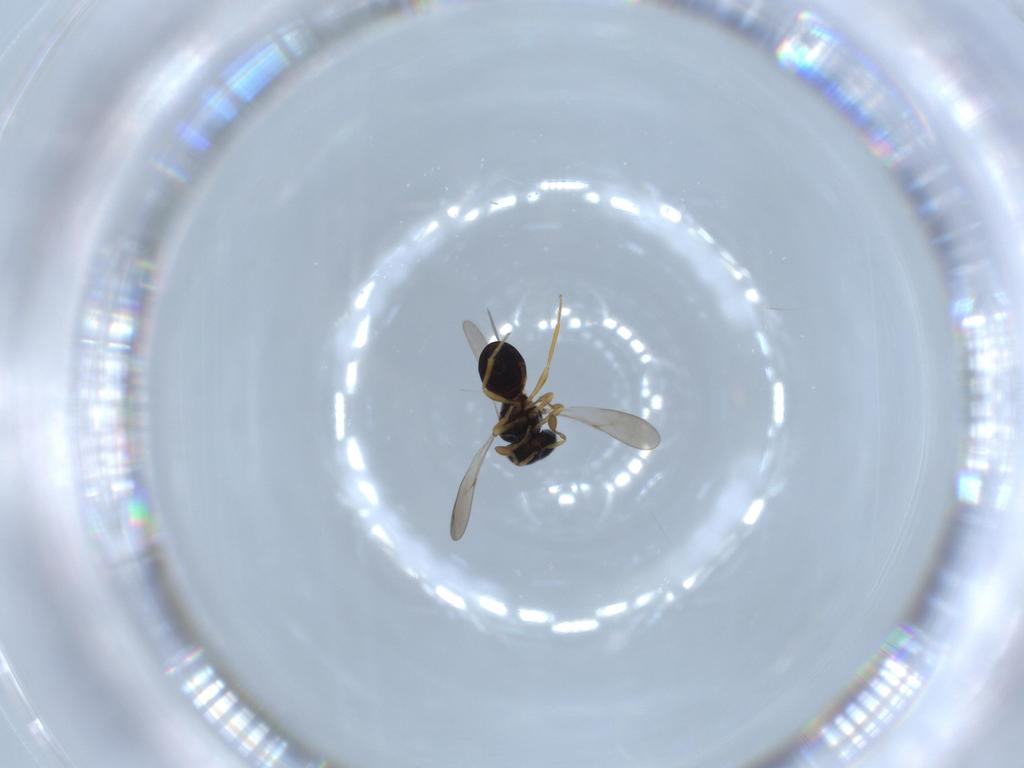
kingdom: Animalia
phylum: Arthropoda
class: Insecta
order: Hymenoptera
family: Scelionidae
